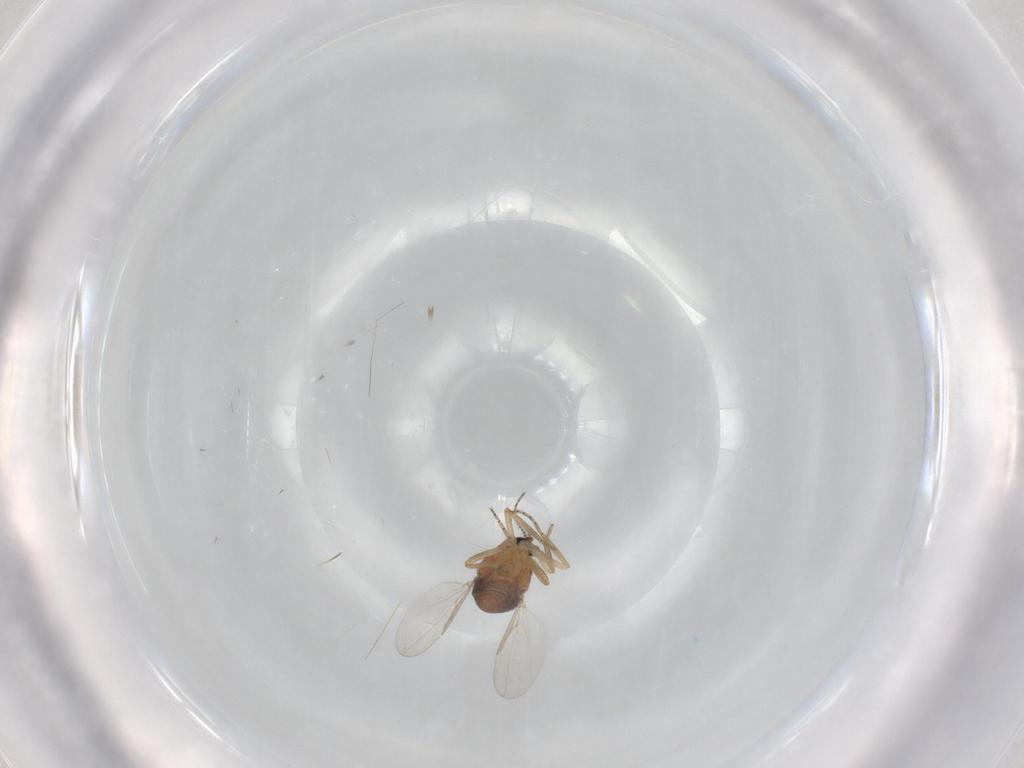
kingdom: Animalia
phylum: Arthropoda
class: Insecta
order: Diptera
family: Ceratopogonidae
